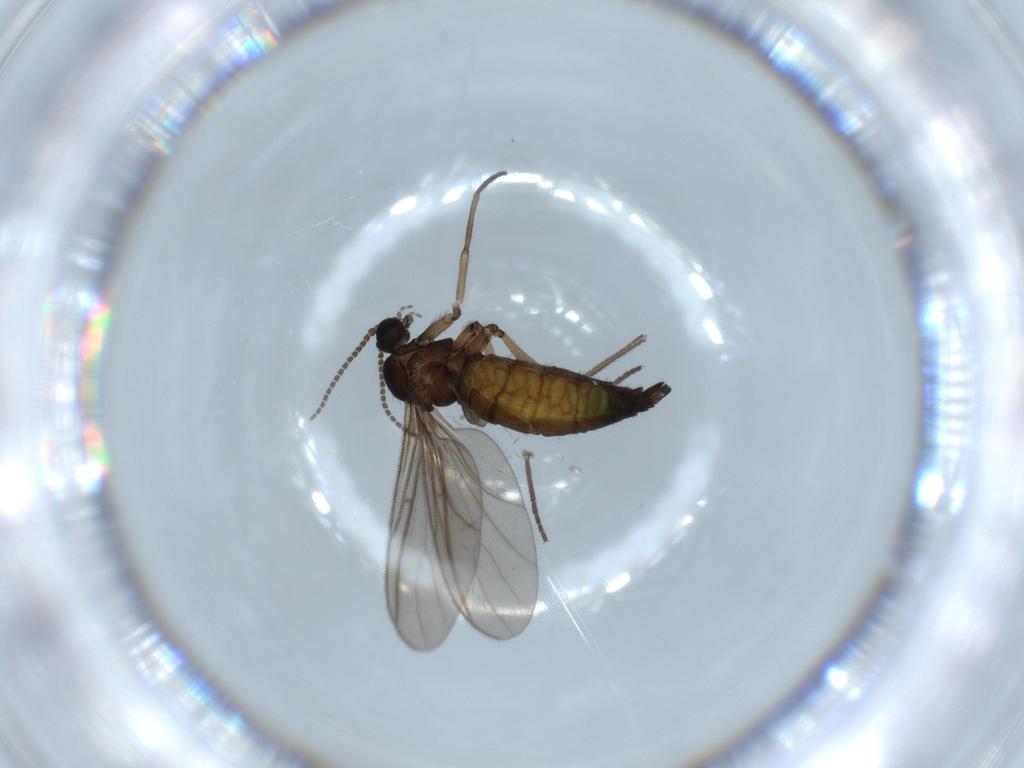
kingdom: Animalia
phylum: Arthropoda
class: Insecta
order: Diptera
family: Sciaridae
